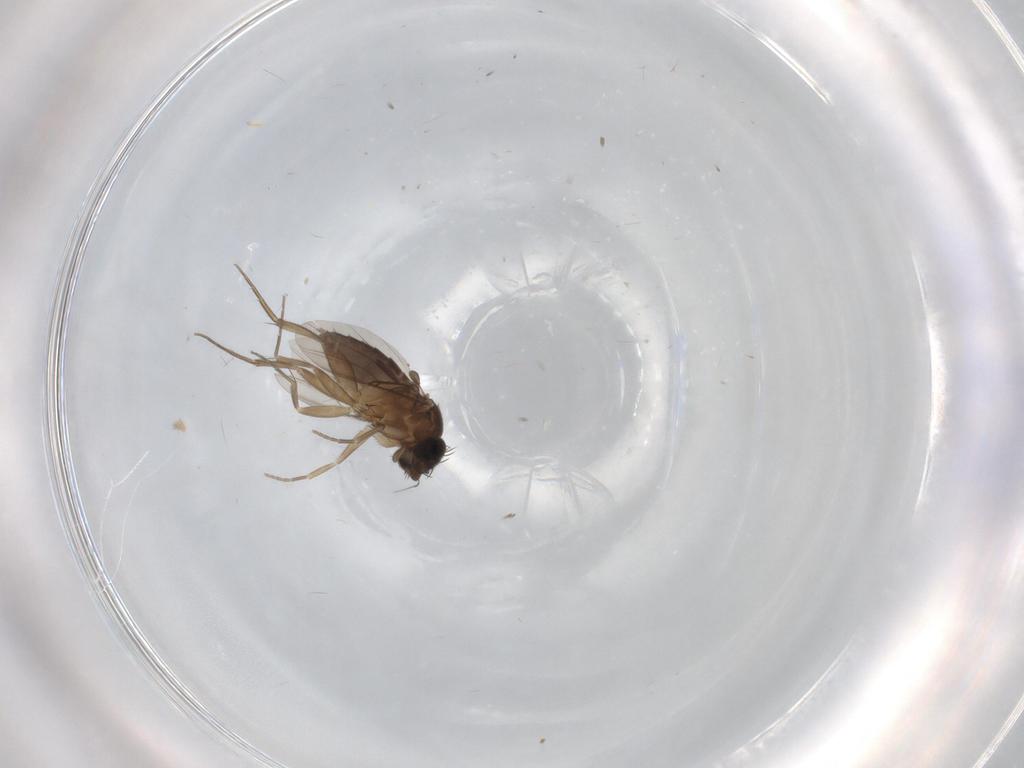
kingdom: Animalia
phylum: Arthropoda
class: Insecta
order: Diptera
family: Phoridae
